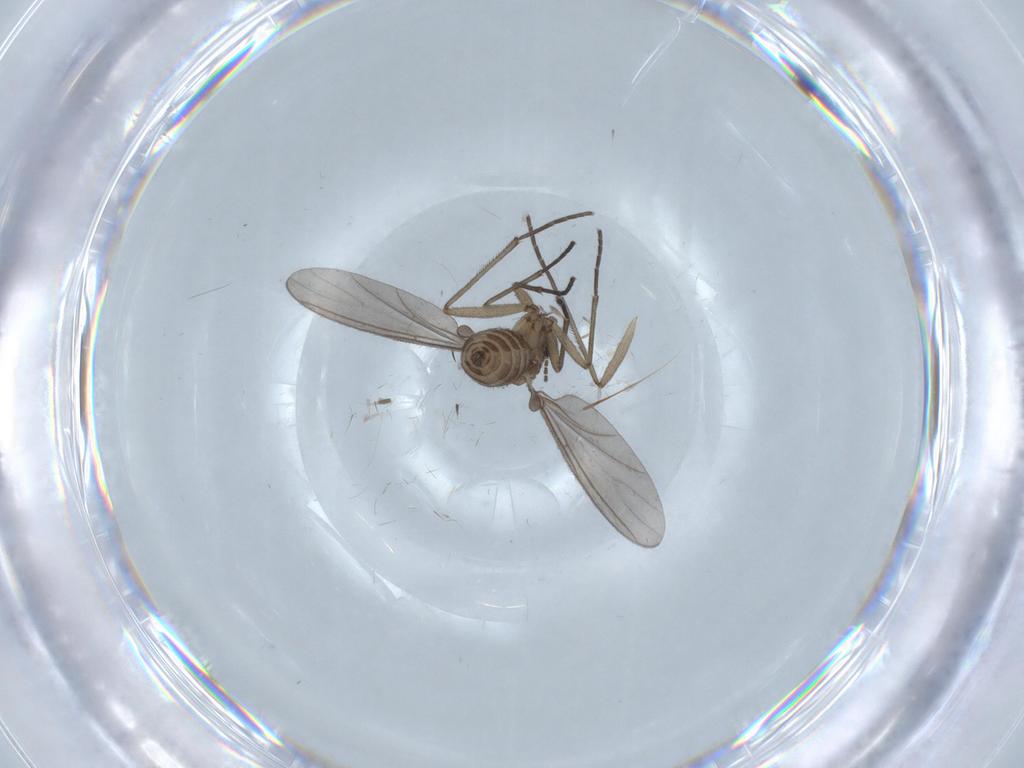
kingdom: Animalia
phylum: Arthropoda
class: Insecta
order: Diptera
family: Sciaridae
